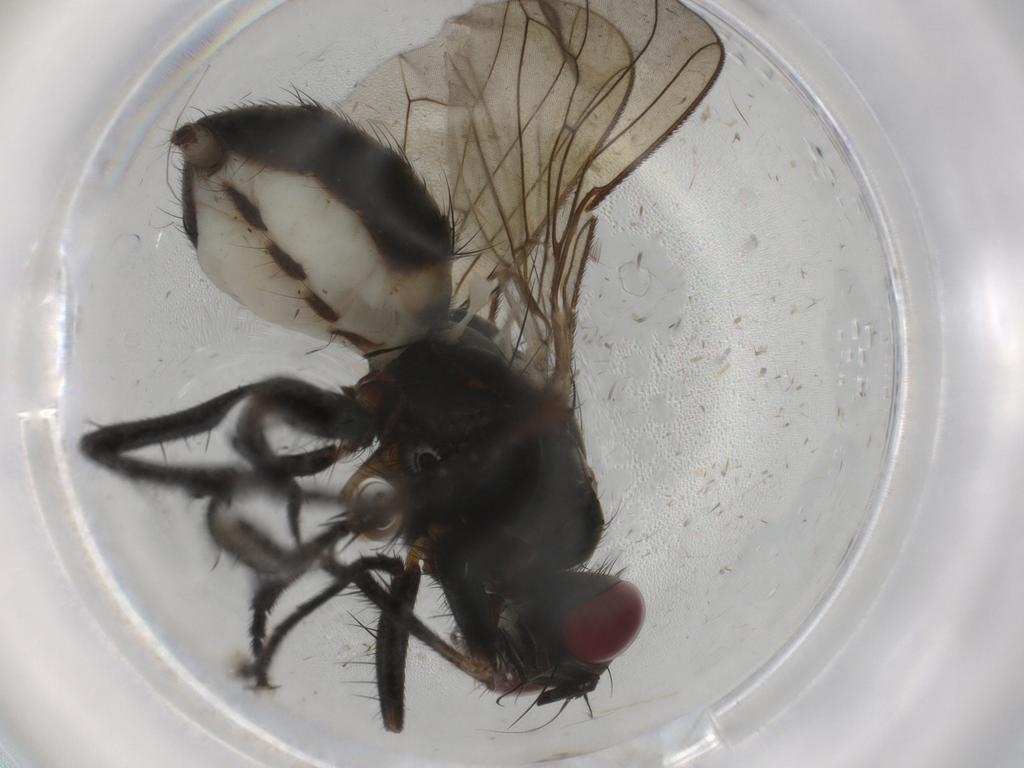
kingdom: Animalia
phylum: Arthropoda
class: Insecta
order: Diptera
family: Muscidae
